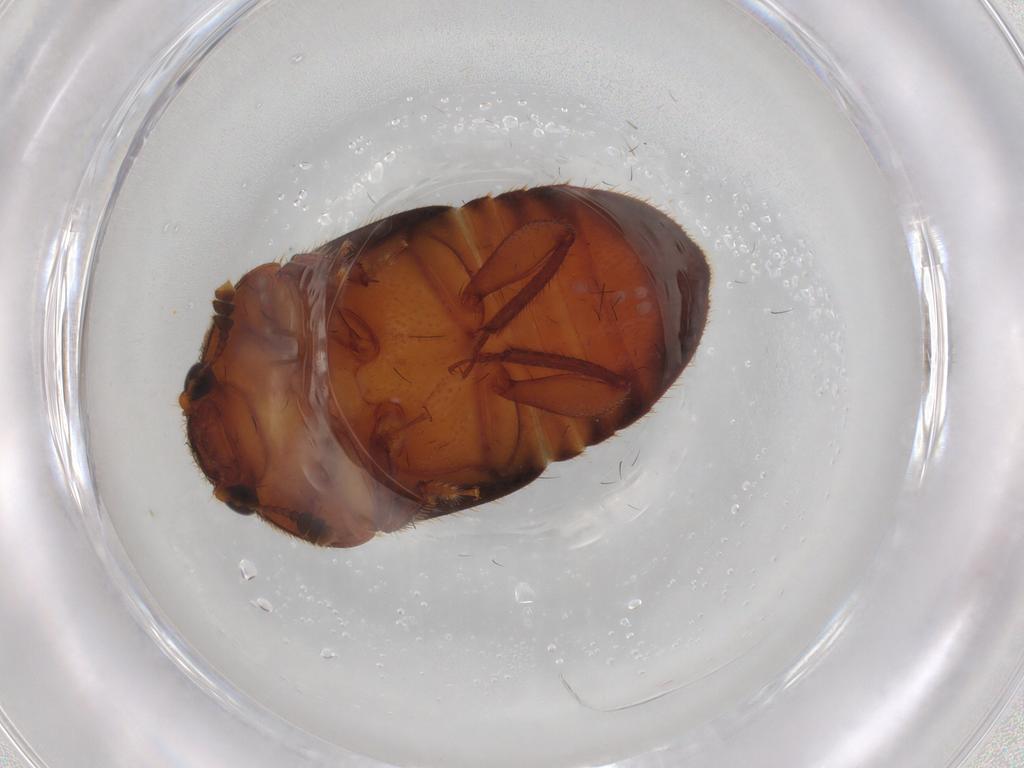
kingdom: Animalia
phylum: Arthropoda
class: Insecta
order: Coleoptera
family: Nitidulidae
